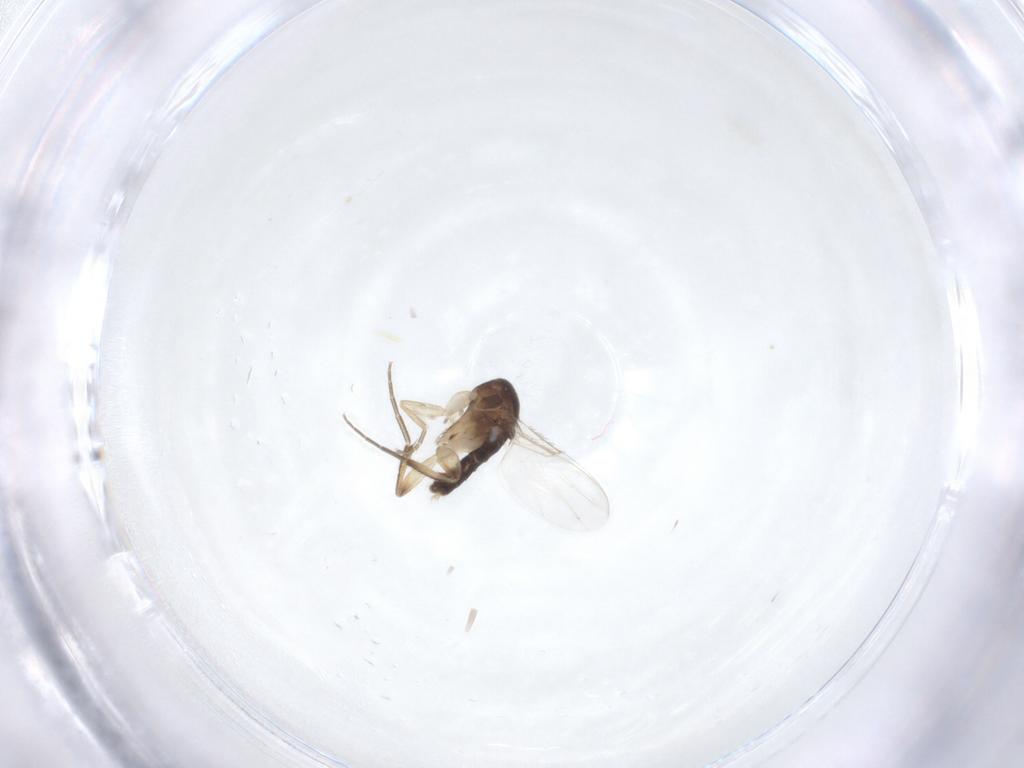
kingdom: Animalia
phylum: Arthropoda
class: Insecta
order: Diptera
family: Phoridae
